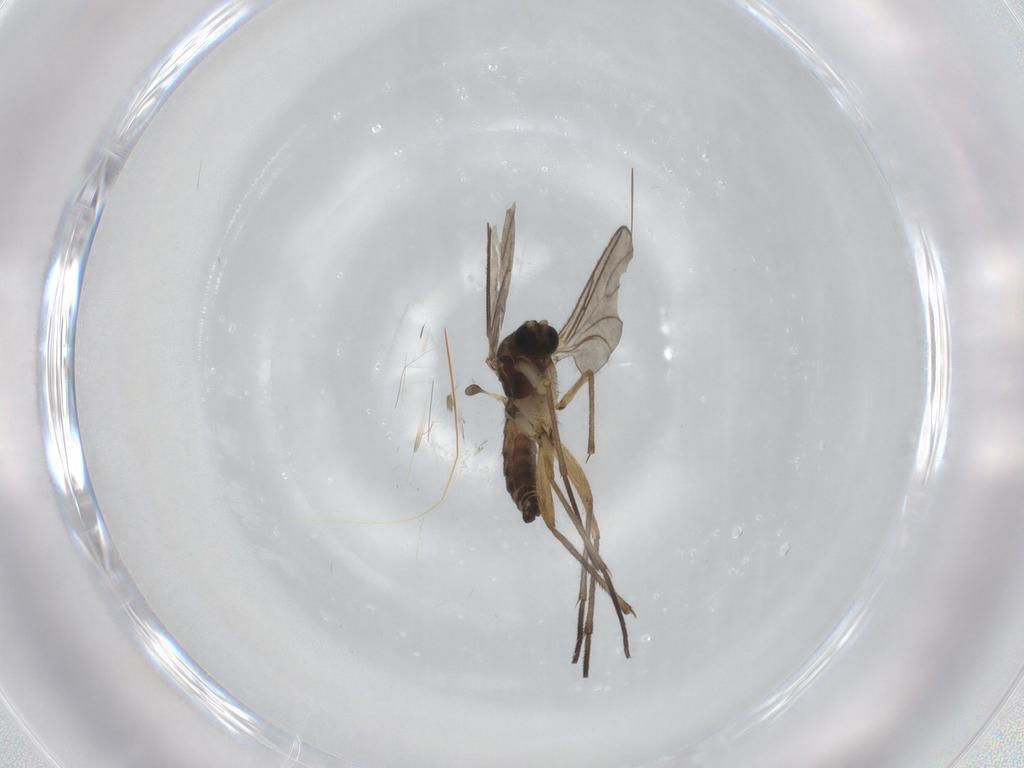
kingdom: Animalia
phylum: Arthropoda
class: Insecta
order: Diptera
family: Sciaridae
